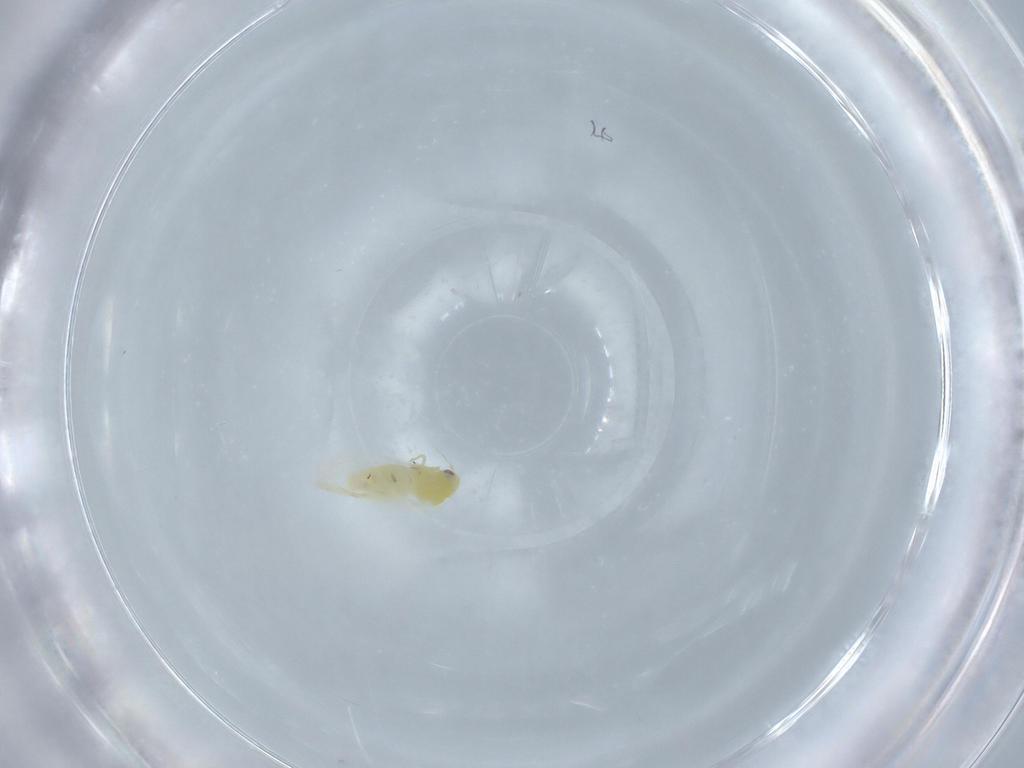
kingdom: Animalia
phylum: Arthropoda
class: Insecta
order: Hemiptera
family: Aleyrodidae
